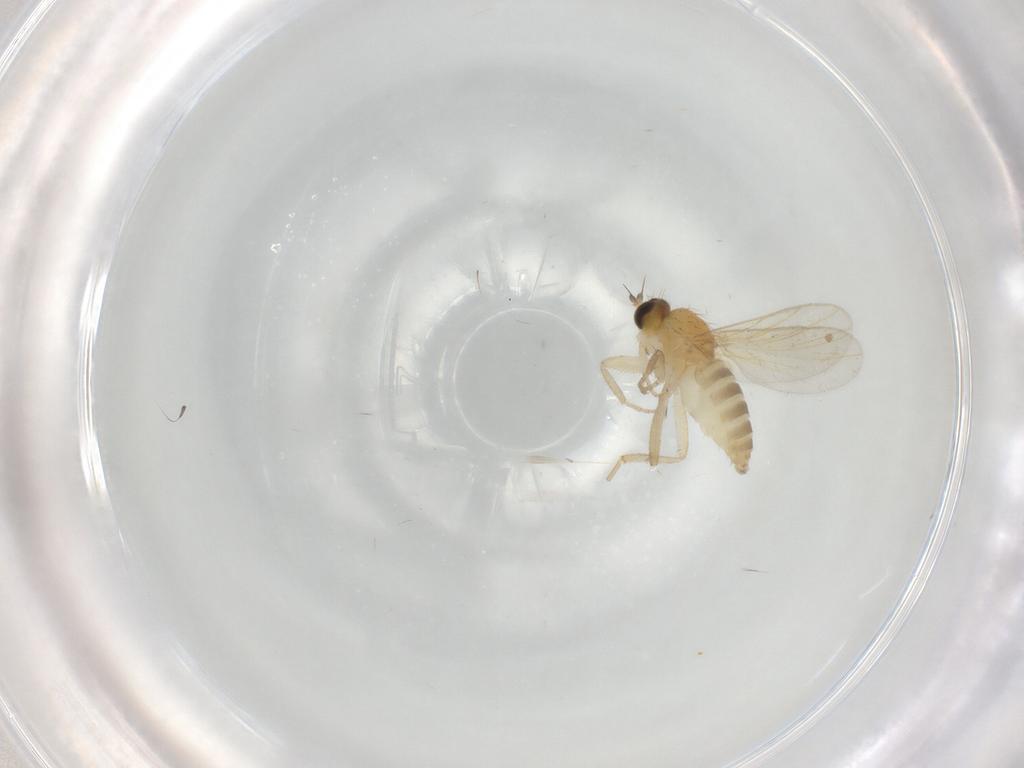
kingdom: Animalia
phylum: Arthropoda
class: Insecta
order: Diptera
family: Hybotidae
